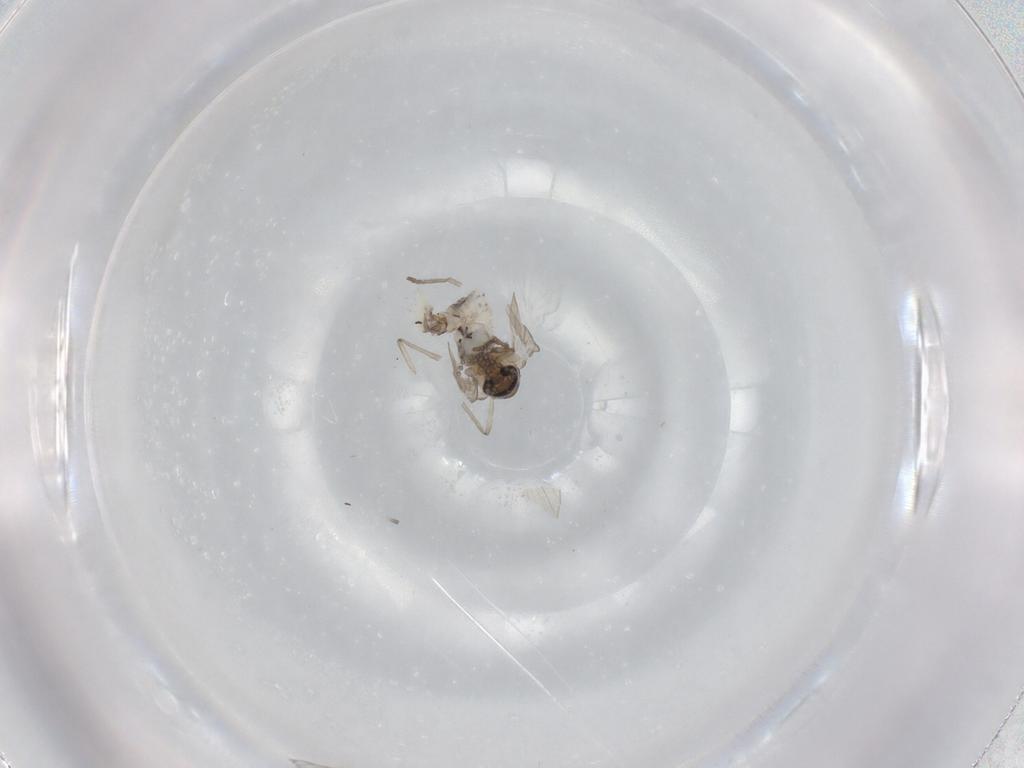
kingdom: Animalia
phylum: Arthropoda
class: Insecta
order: Diptera
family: Psychodidae
